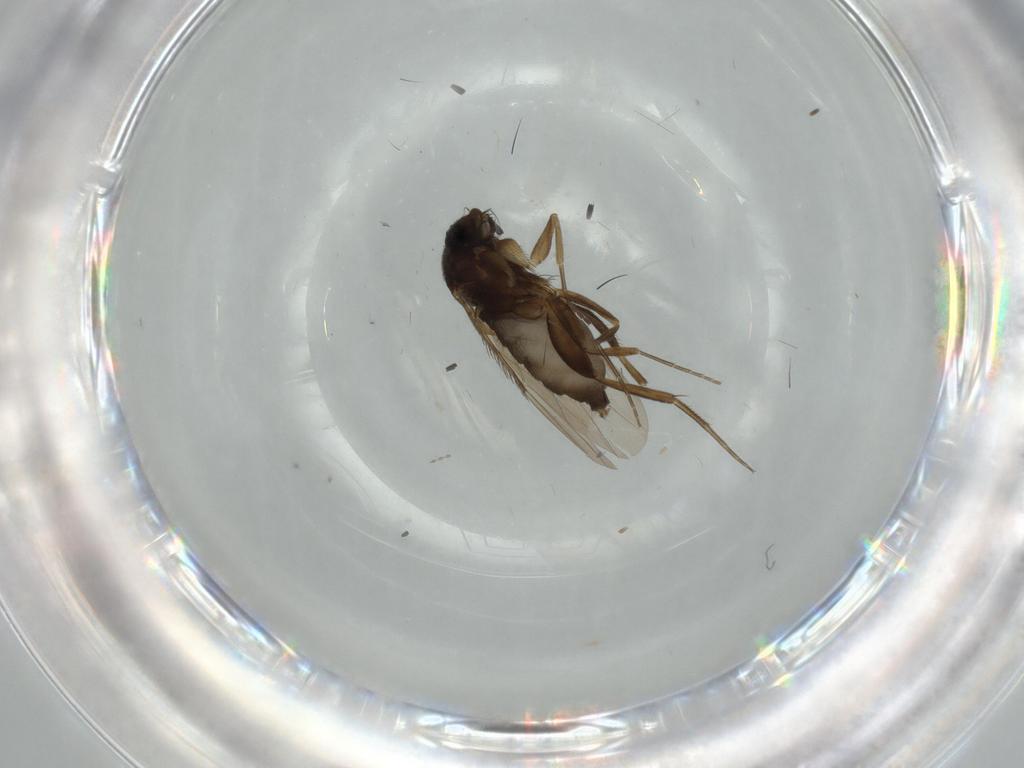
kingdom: Animalia
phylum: Arthropoda
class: Insecta
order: Diptera
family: Phoridae
